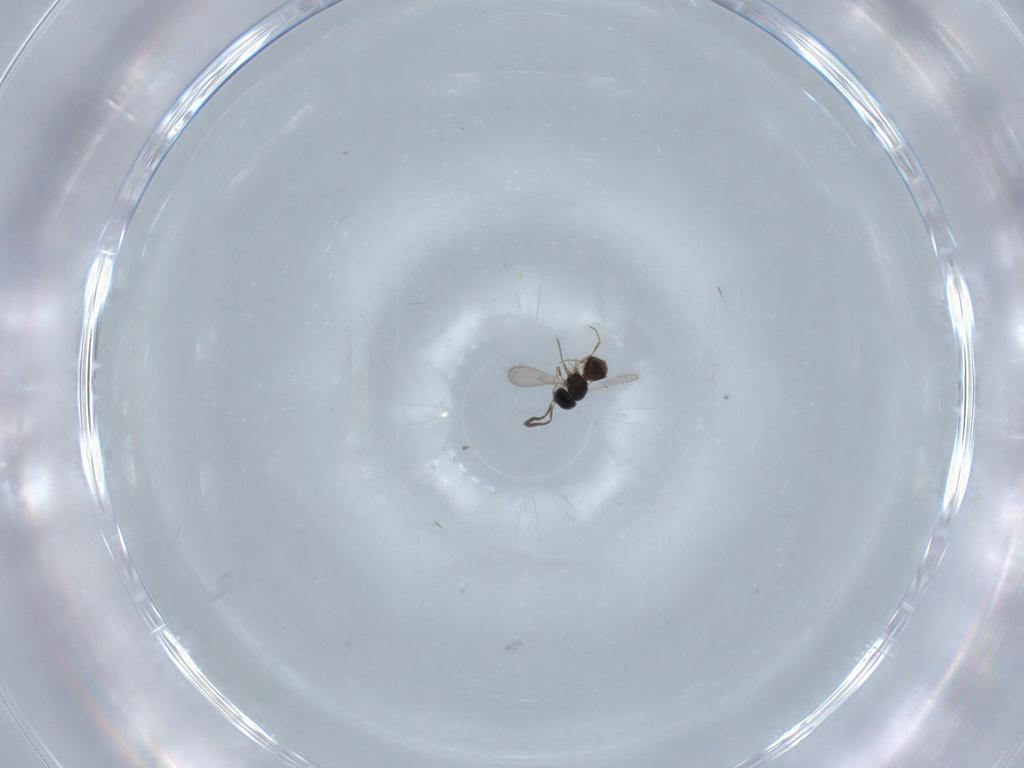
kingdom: Animalia
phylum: Arthropoda
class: Insecta
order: Hymenoptera
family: Scelionidae
